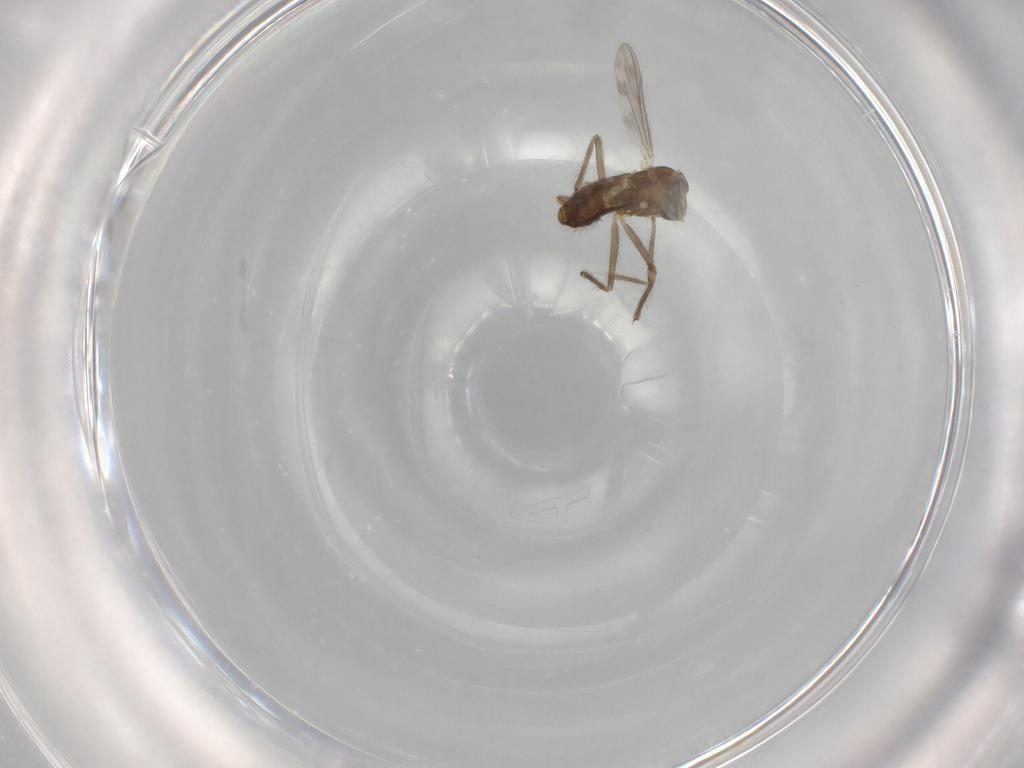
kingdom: Animalia
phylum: Arthropoda
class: Insecta
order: Diptera
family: Chironomidae
